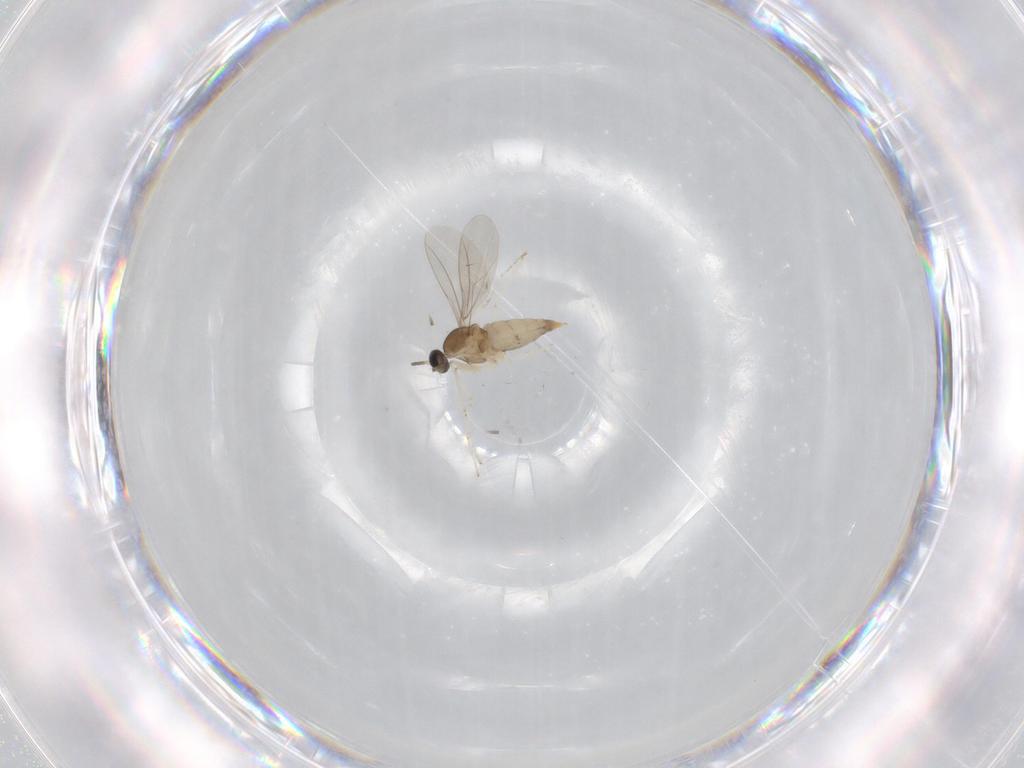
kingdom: Animalia
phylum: Arthropoda
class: Insecta
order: Diptera
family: Cecidomyiidae
